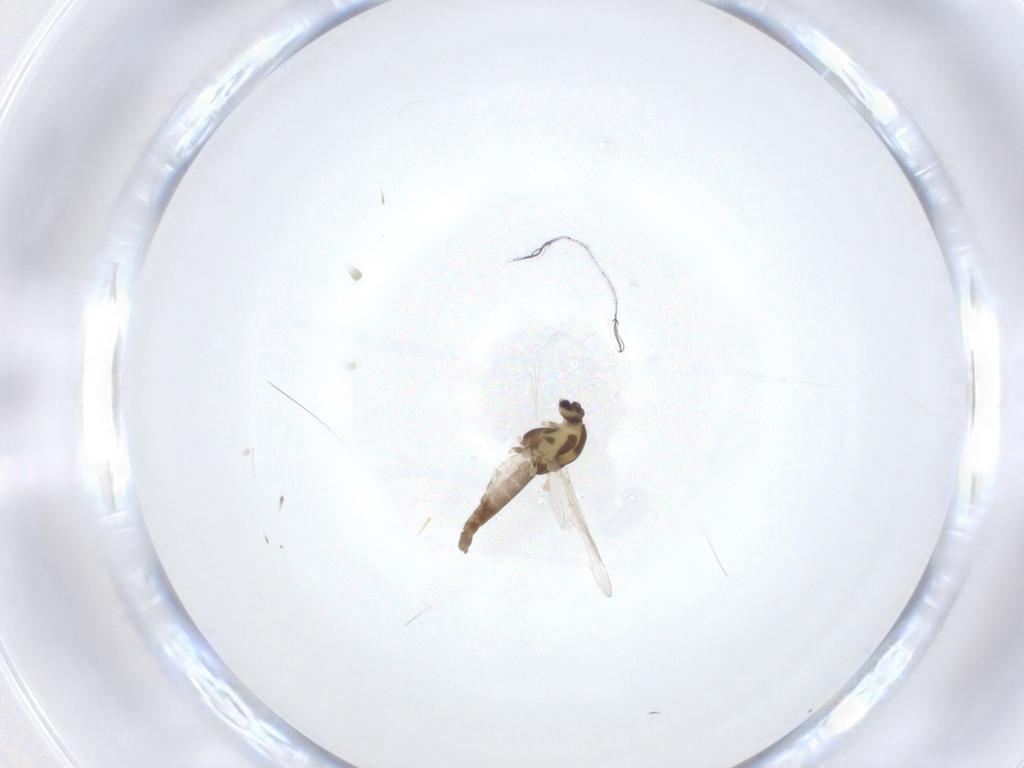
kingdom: Animalia
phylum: Arthropoda
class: Insecta
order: Diptera
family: Chironomidae
